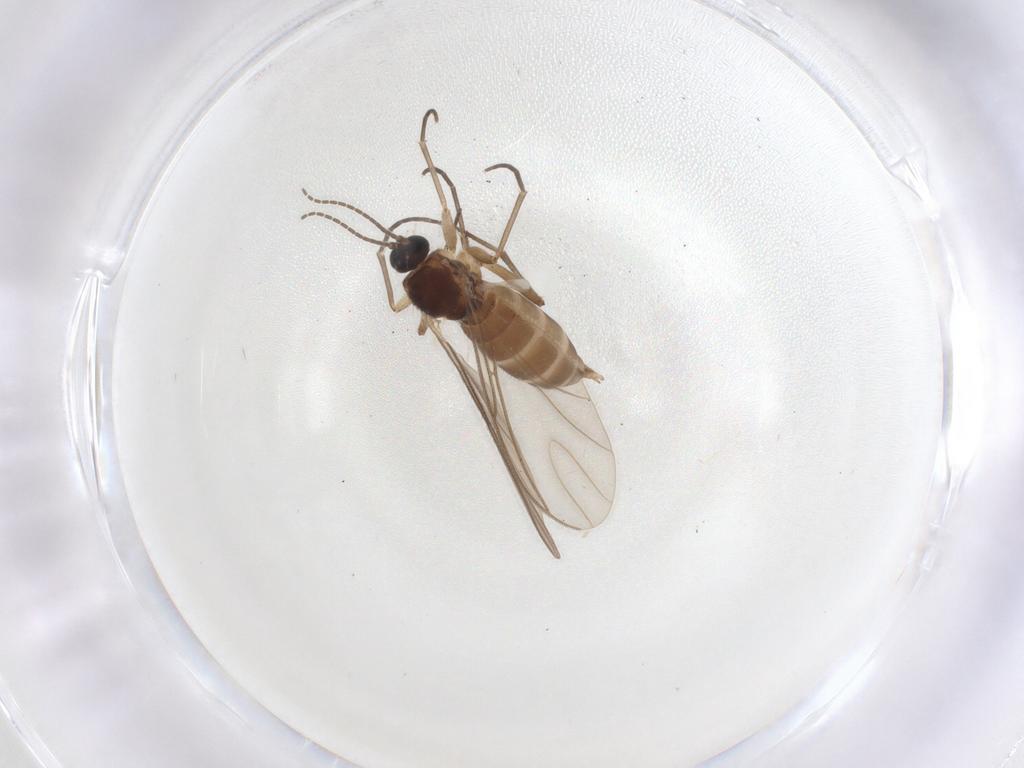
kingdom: Animalia
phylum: Arthropoda
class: Insecta
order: Diptera
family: Sciaridae
